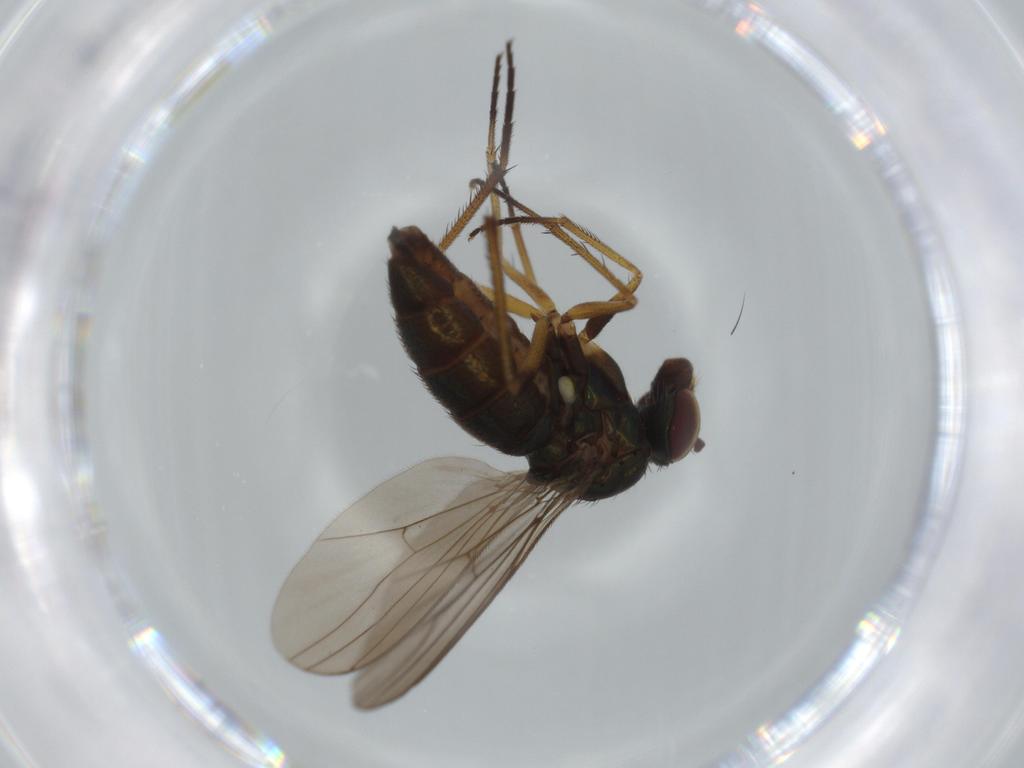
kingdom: Animalia
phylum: Arthropoda
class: Insecta
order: Diptera
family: Dolichopodidae
